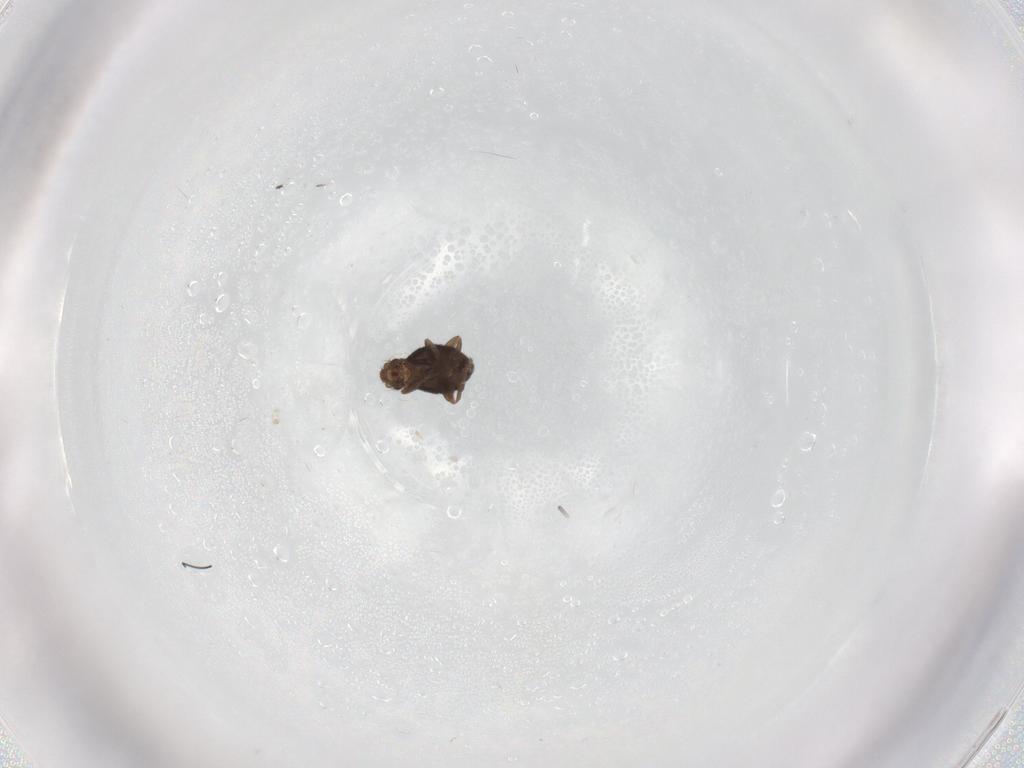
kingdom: Animalia
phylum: Arthropoda
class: Insecta
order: Diptera
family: Phoridae
